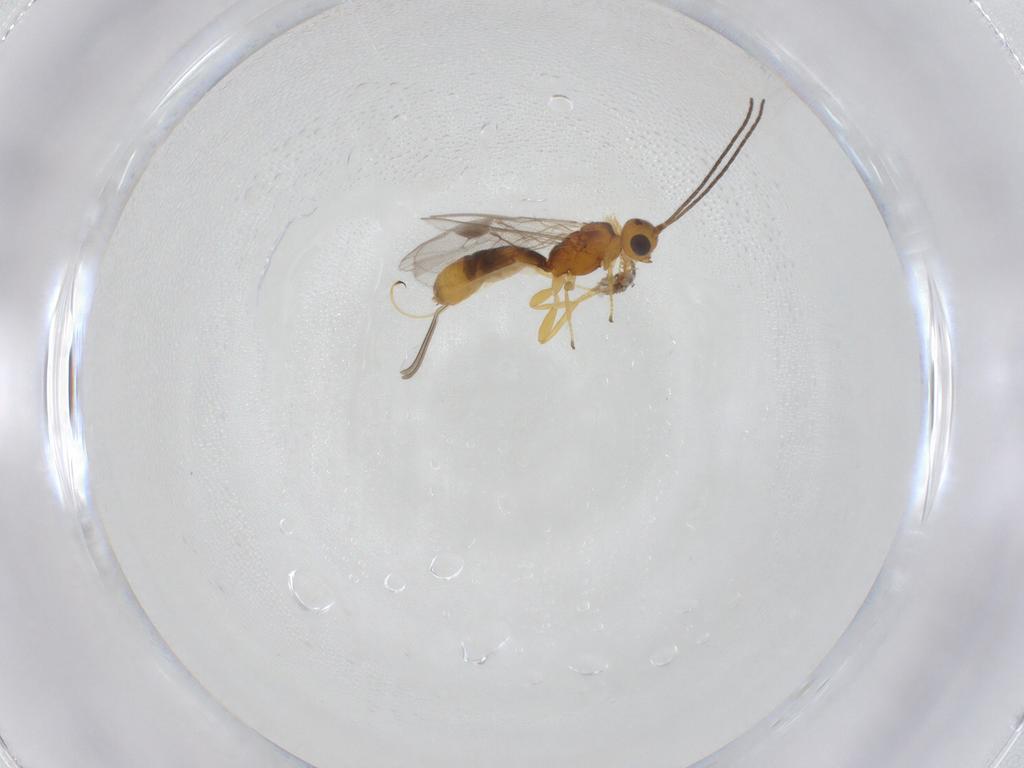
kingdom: Animalia
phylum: Arthropoda
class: Insecta
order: Hymenoptera
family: Braconidae
